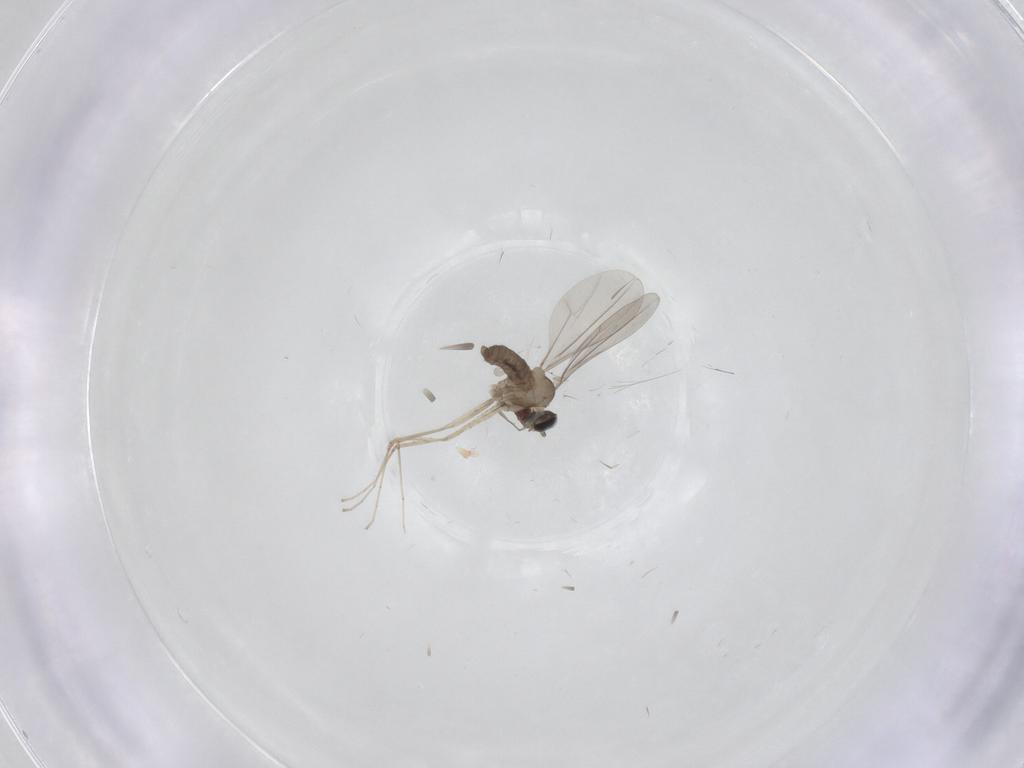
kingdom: Animalia
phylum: Arthropoda
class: Insecta
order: Diptera
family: Cecidomyiidae
